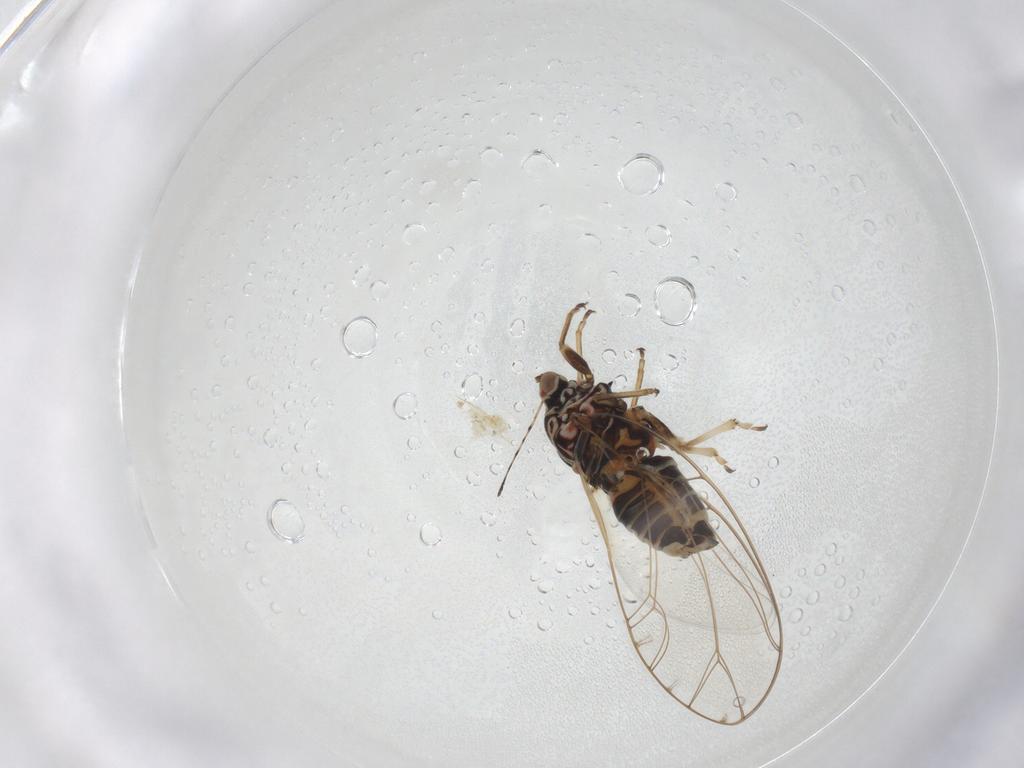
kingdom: Animalia
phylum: Arthropoda
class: Insecta
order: Hemiptera
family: Triozidae
